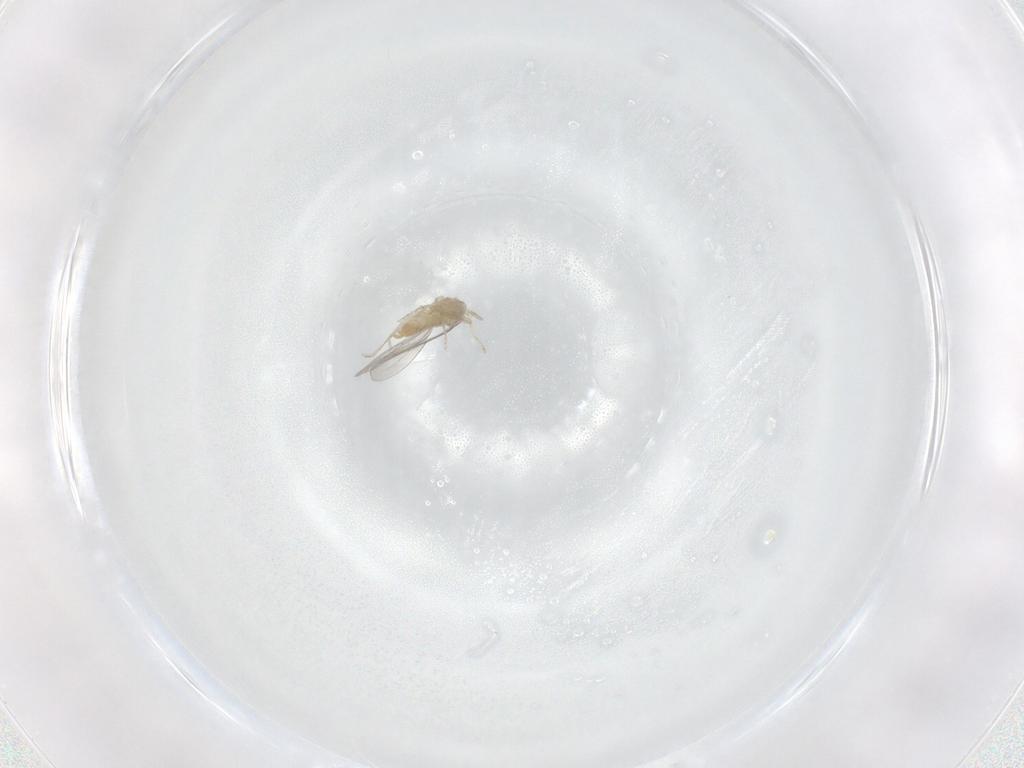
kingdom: Animalia
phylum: Arthropoda
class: Insecta
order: Diptera
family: Cecidomyiidae
